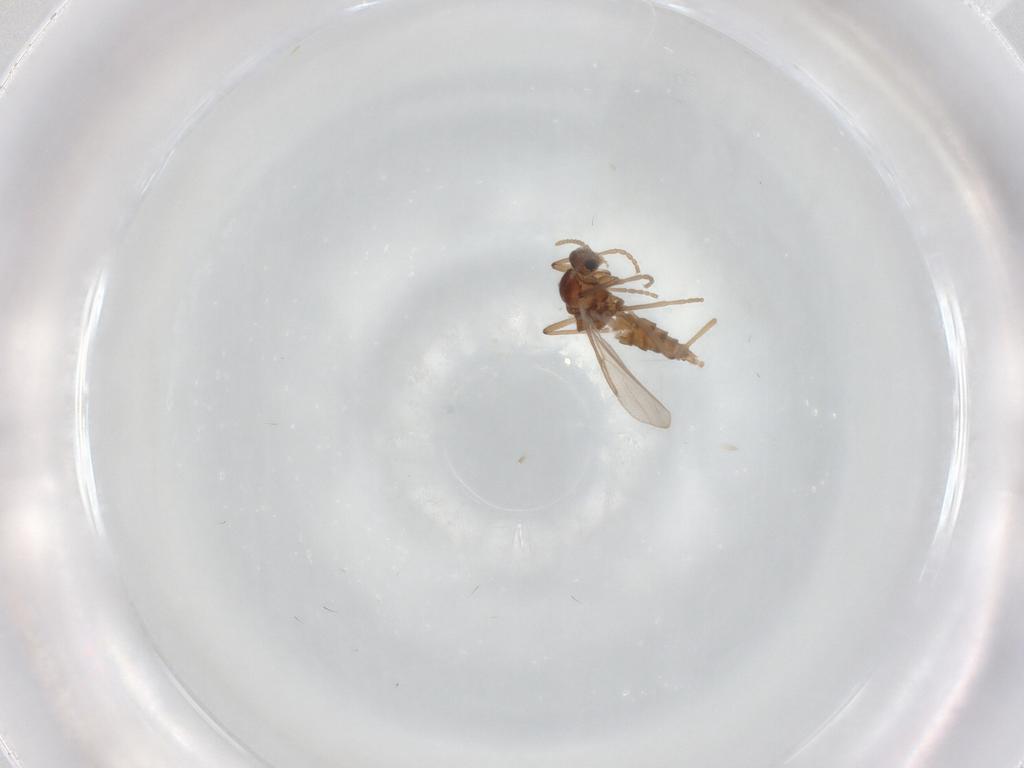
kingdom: Animalia
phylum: Arthropoda
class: Insecta
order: Diptera
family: Cecidomyiidae
